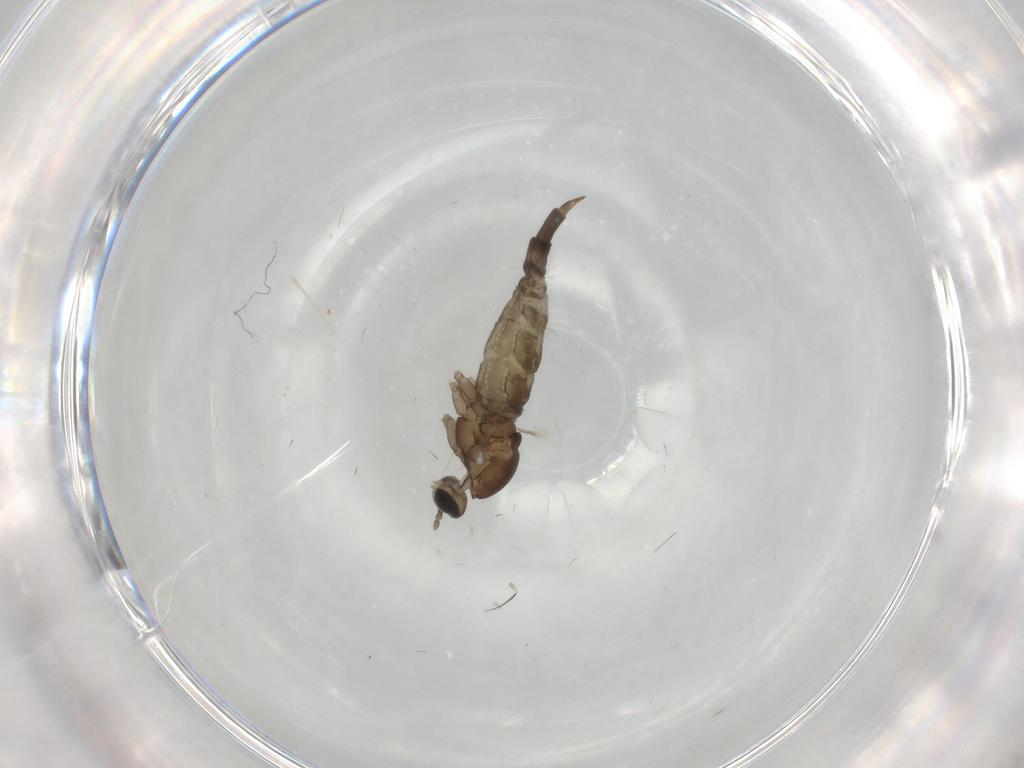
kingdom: Animalia
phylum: Arthropoda
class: Insecta
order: Diptera
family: Cecidomyiidae
